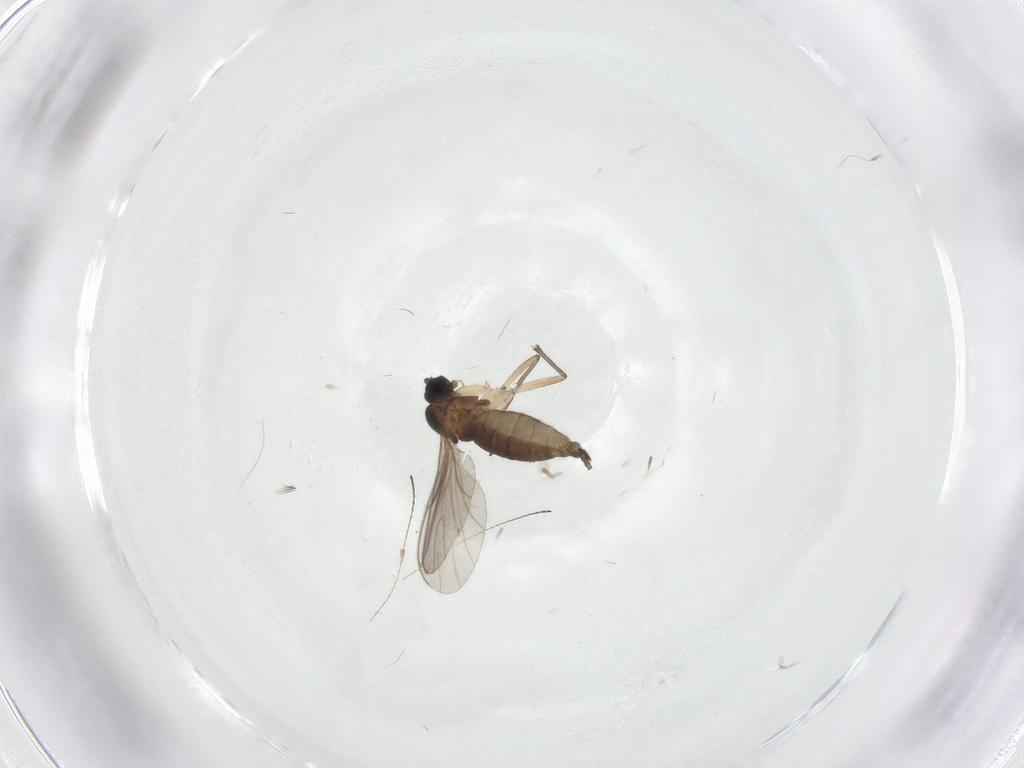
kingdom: Animalia
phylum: Arthropoda
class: Insecta
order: Diptera
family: Sciaridae
